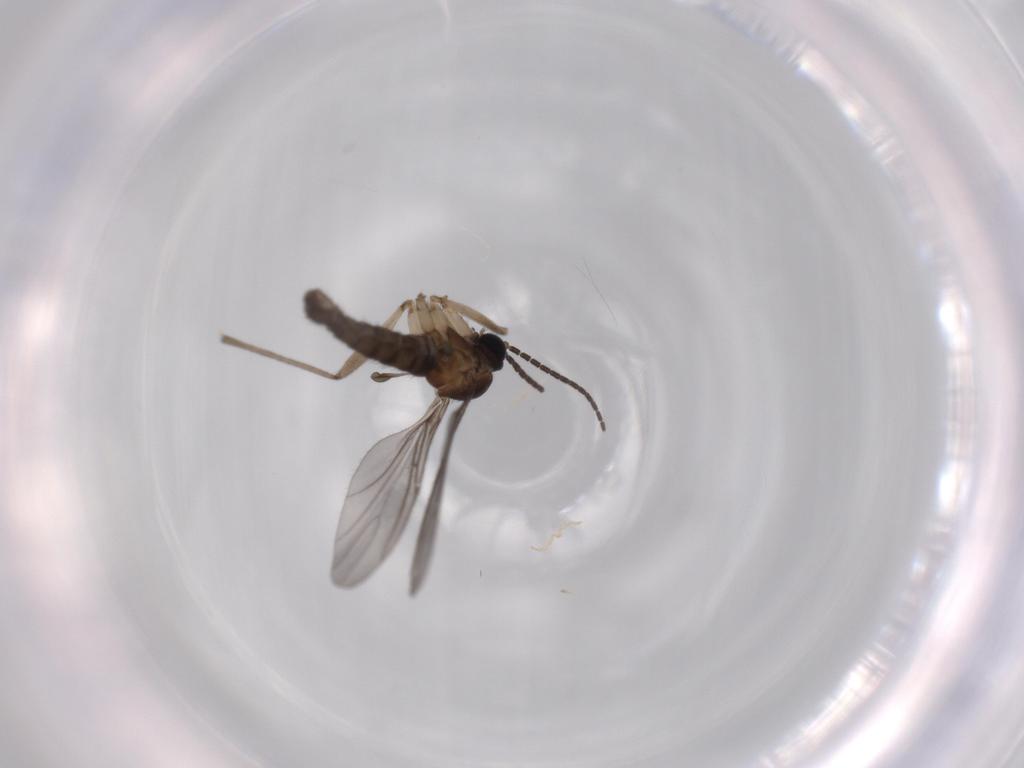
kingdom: Animalia
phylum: Arthropoda
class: Insecta
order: Diptera
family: Sciaridae
